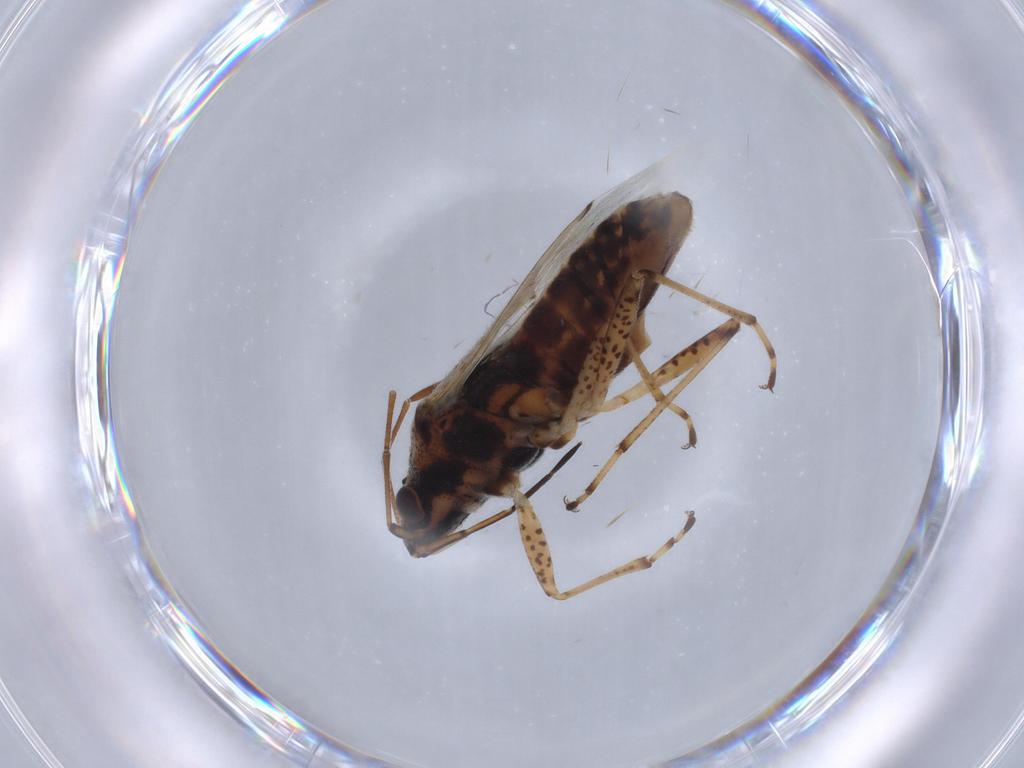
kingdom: Animalia
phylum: Arthropoda
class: Insecta
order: Hemiptera
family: Lygaeidae
